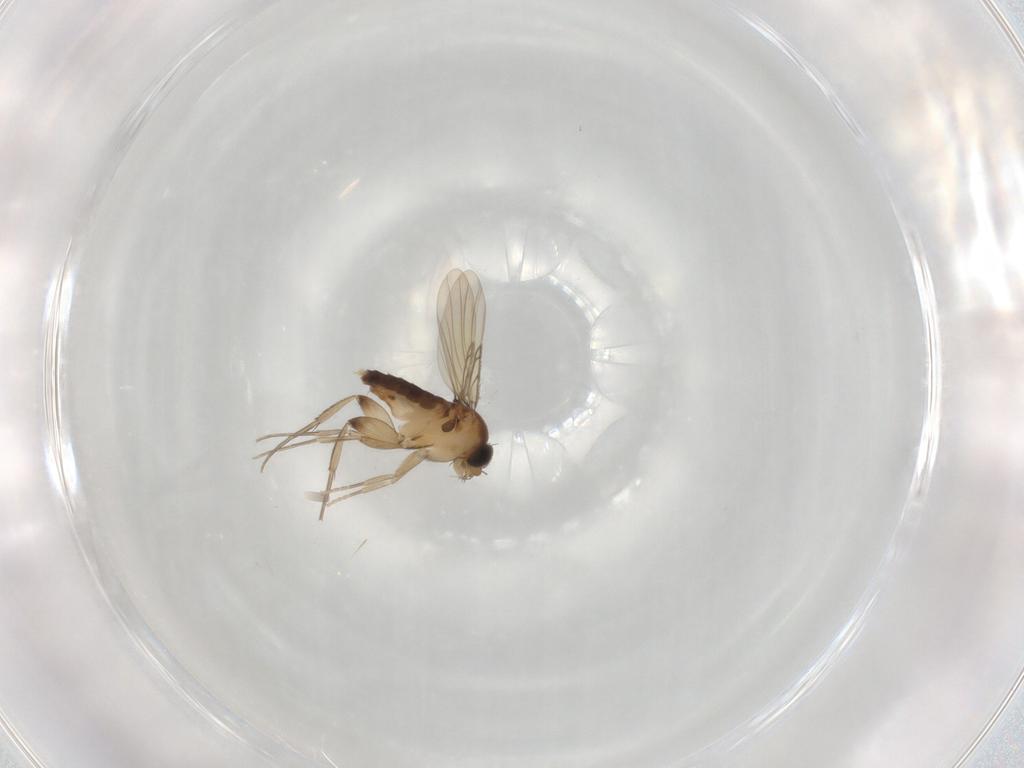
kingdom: Animalia
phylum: Arthropoda
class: Insecta
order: Diptera
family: Phoridae
